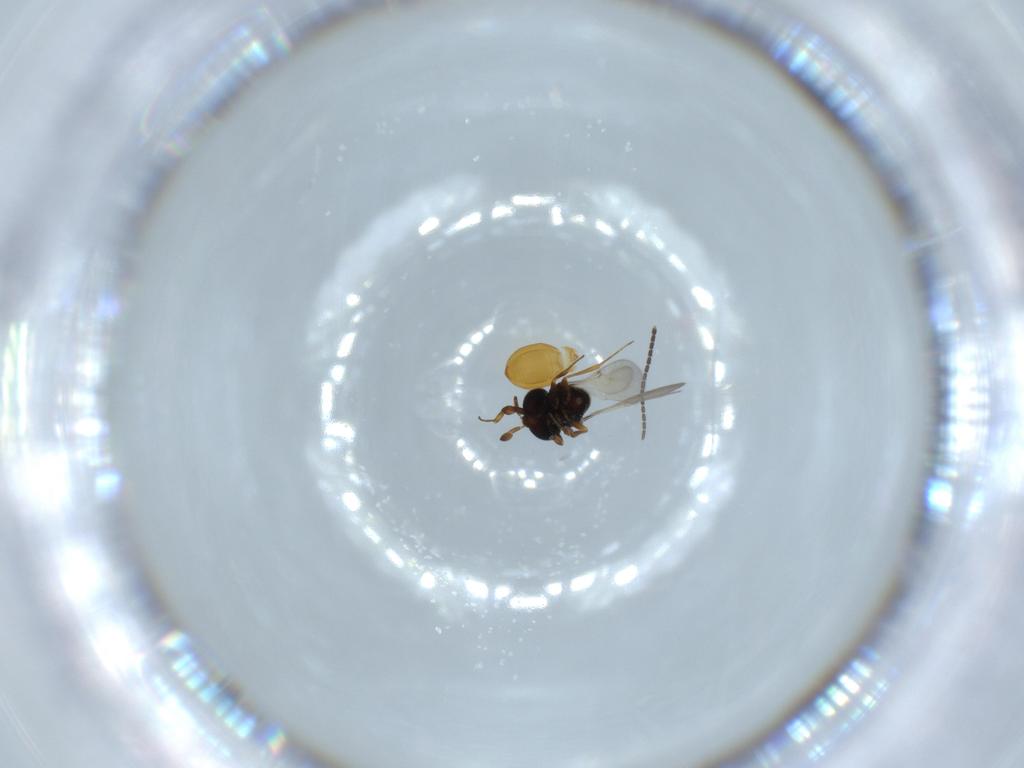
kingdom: Animalia
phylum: Arthropoda
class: Insecta
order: Hymenoptera
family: Scelionidae
